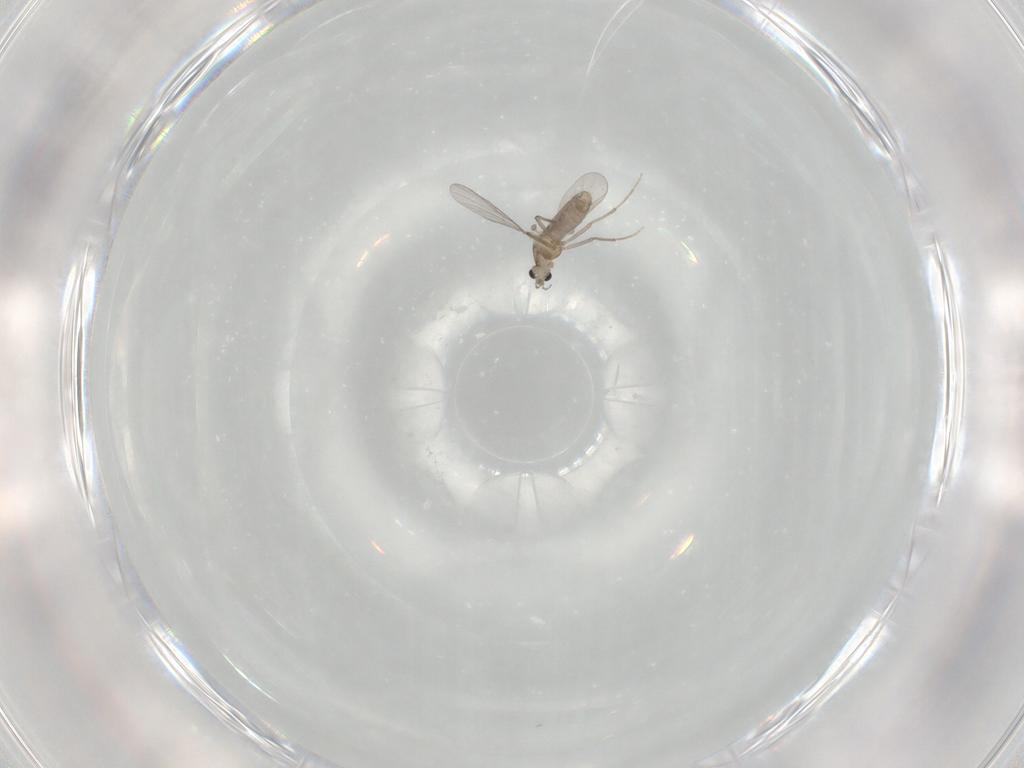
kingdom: Animalia
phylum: Arthropoda
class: Insecta
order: Diptera
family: Chironomidae
